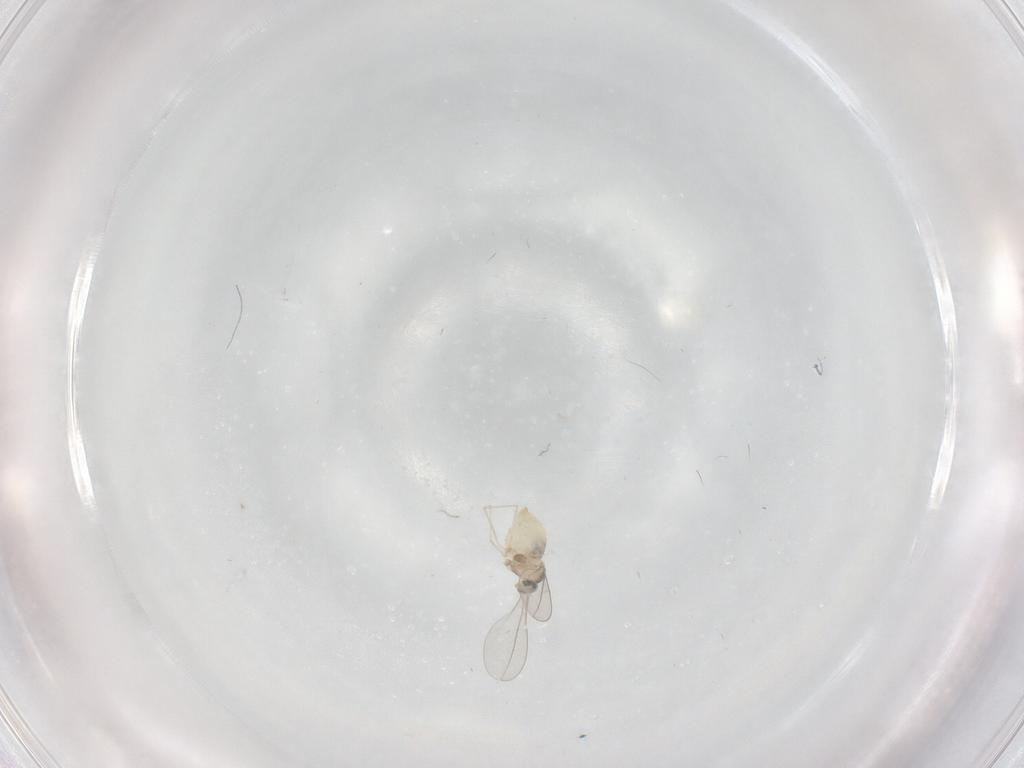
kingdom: Animalia
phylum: Arthropoda
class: Insecta
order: Diptera
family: Cecidomyiidae
